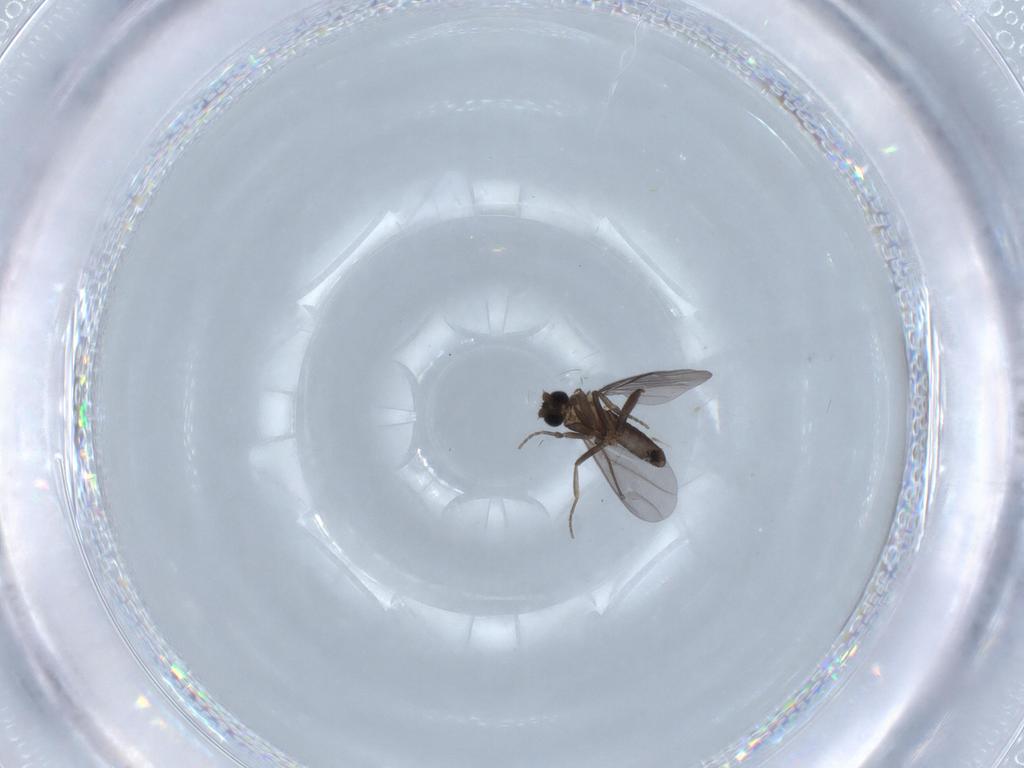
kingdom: Animalia
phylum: Arthropoda
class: Insecta
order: Diptera
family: Phoridae
